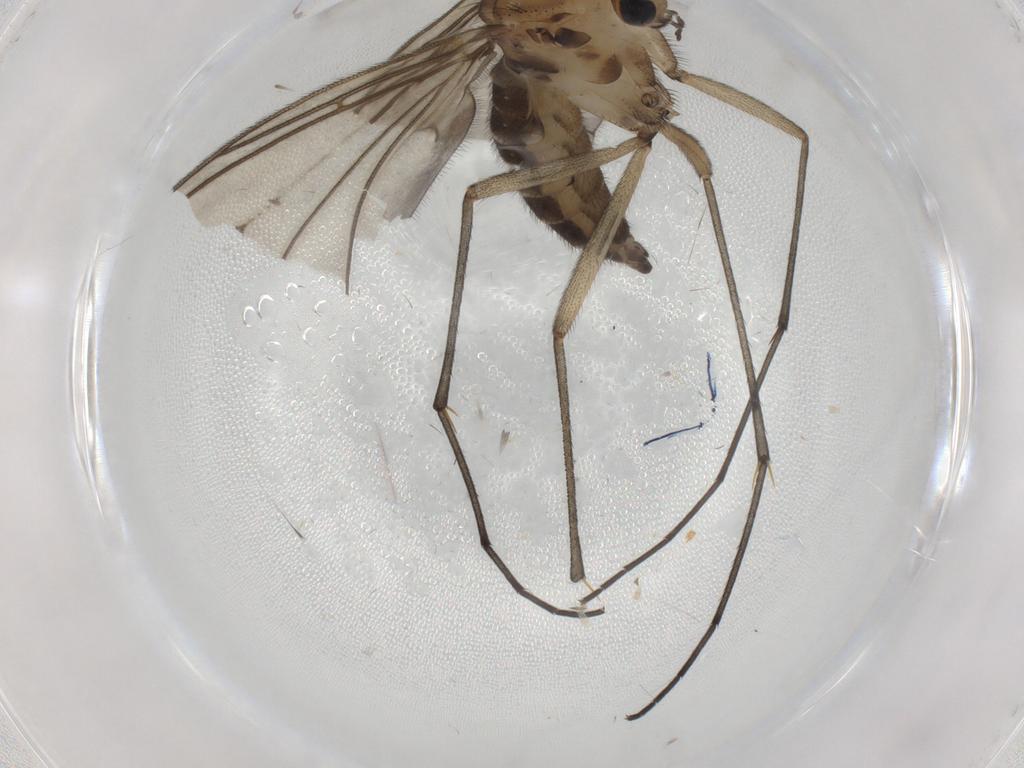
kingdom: Animalia
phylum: Arthropoda
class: Insecta
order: Diptera
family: Sciaridae
